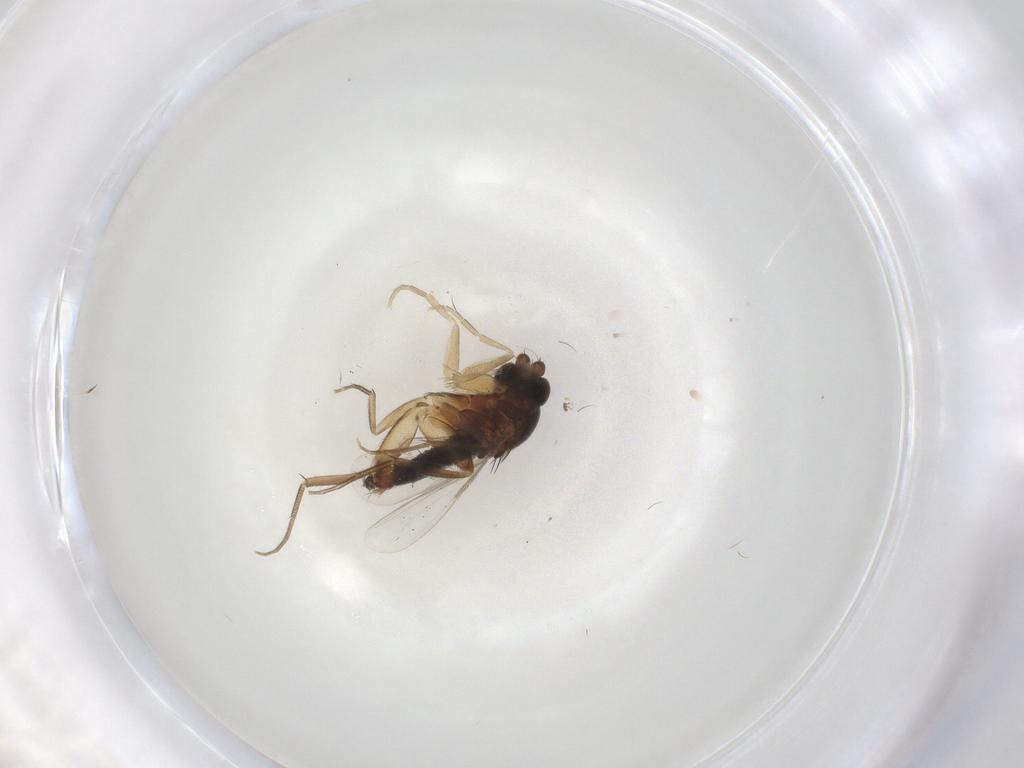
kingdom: Animalia
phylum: Arthropoda
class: Insecta
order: Diptera
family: Phoridae
